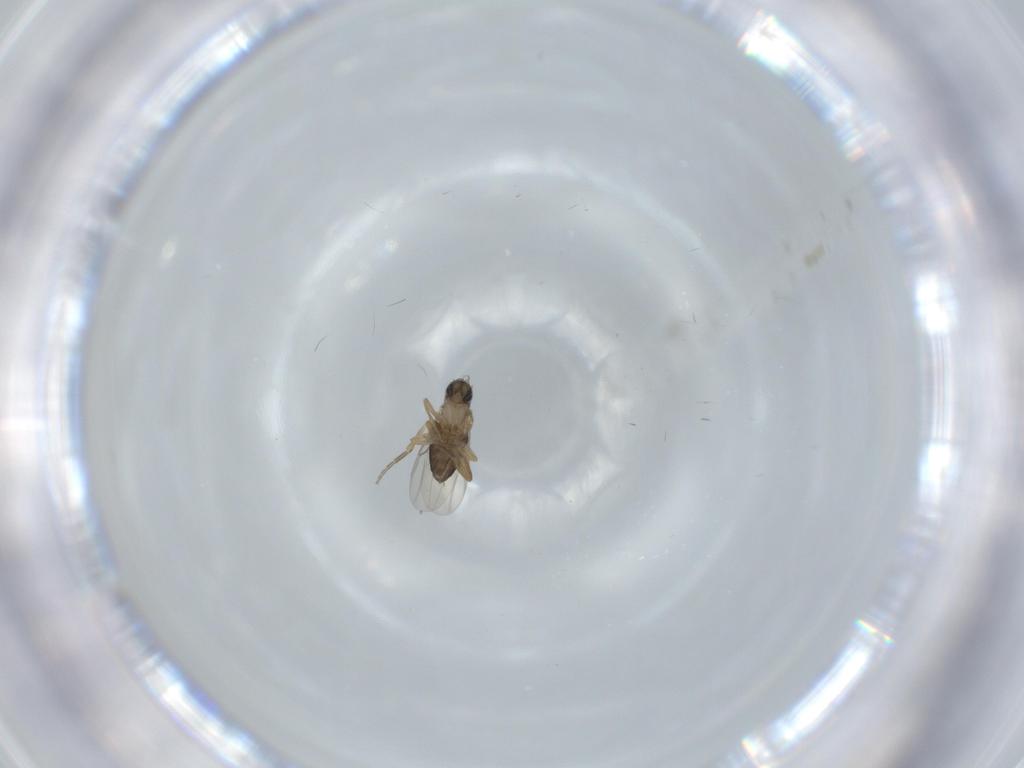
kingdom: Animalia
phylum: Arthropoda
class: Insecta
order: Diptera
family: Phoridae
